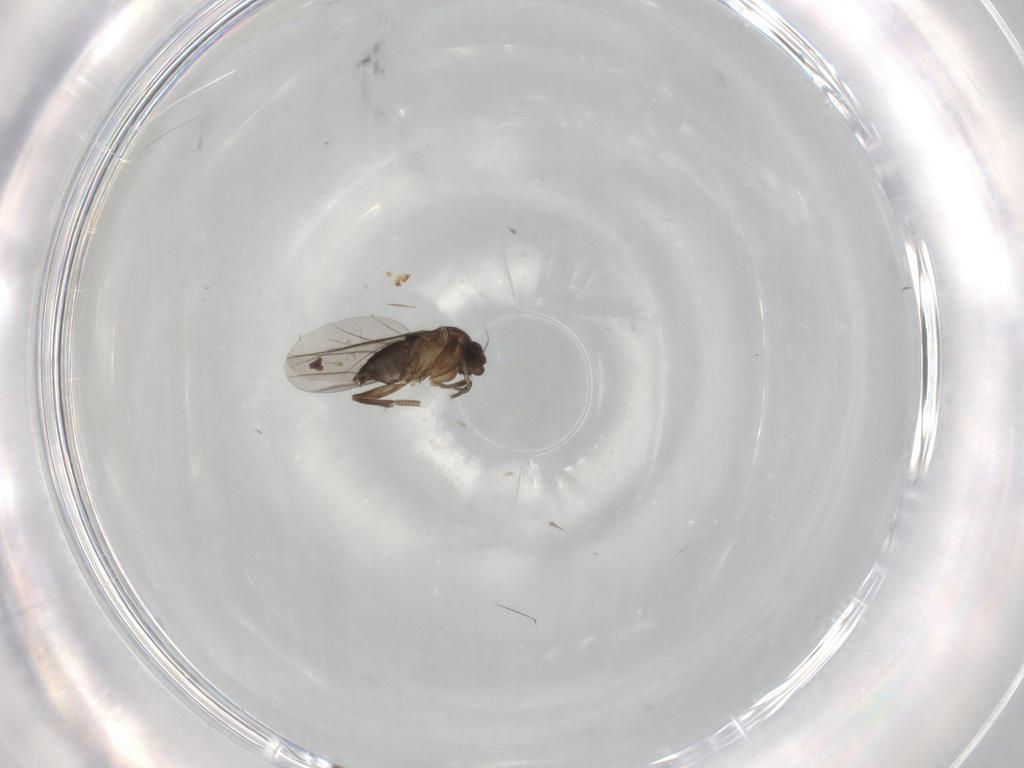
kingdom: Animalia
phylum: Arthropoda
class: Insecta
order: Diptera
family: Phoridae
